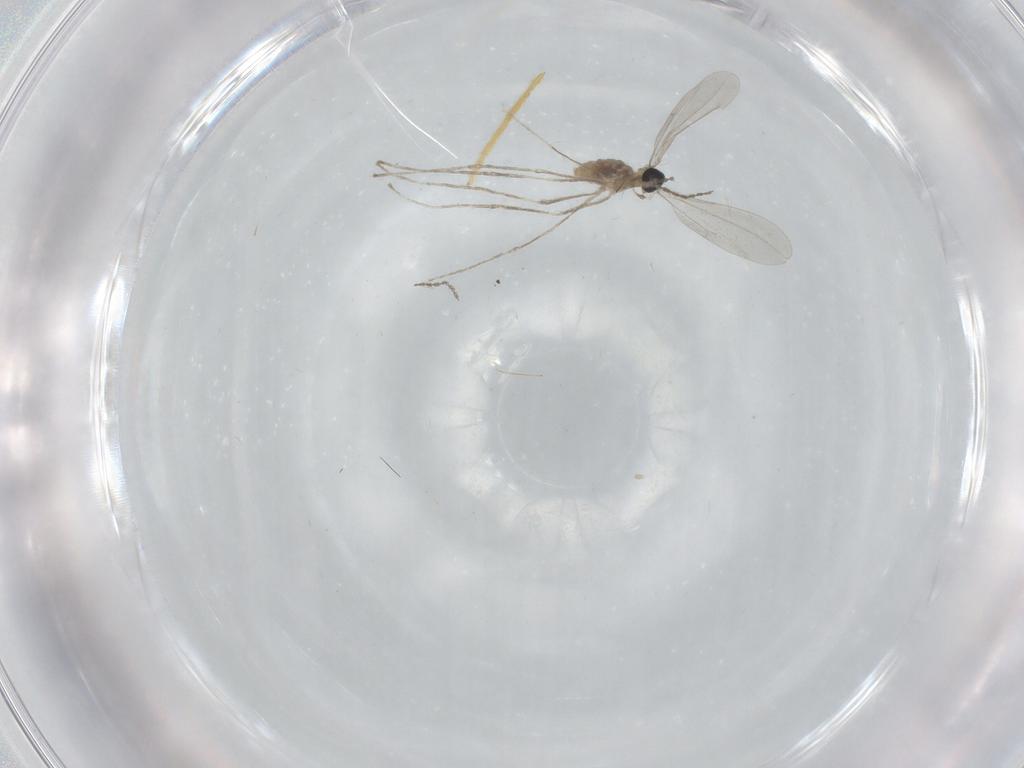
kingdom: Animalia
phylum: Arthropoda
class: Insecta
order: Diptera
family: Cecidomyiidae
